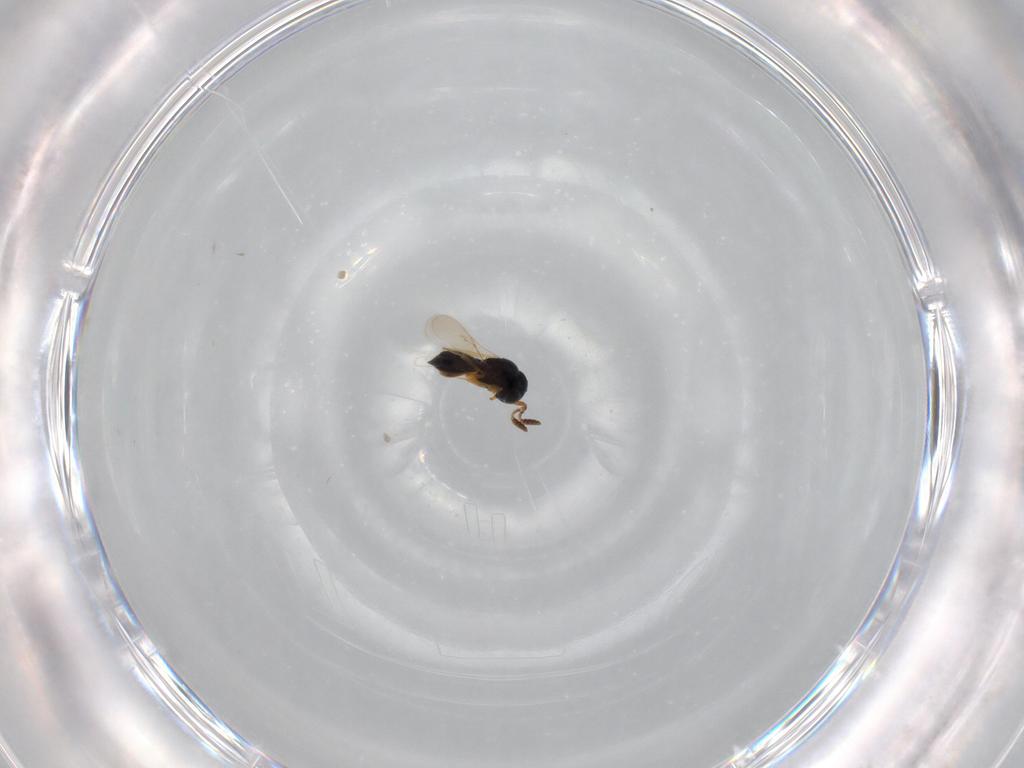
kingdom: Animalia
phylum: Arthropoda
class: Insecta
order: Hymenoptera
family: Scelionidae
